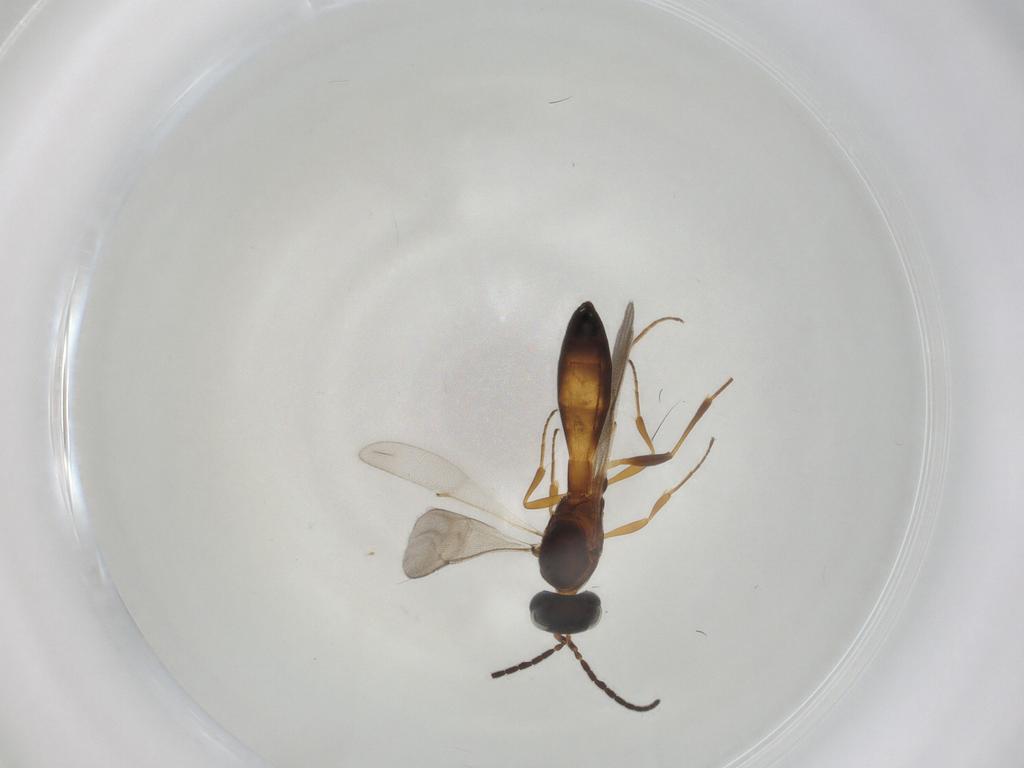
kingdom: Animalia
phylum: Arthropoda
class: Insecta
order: Hymenoptera
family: Scelionidae
